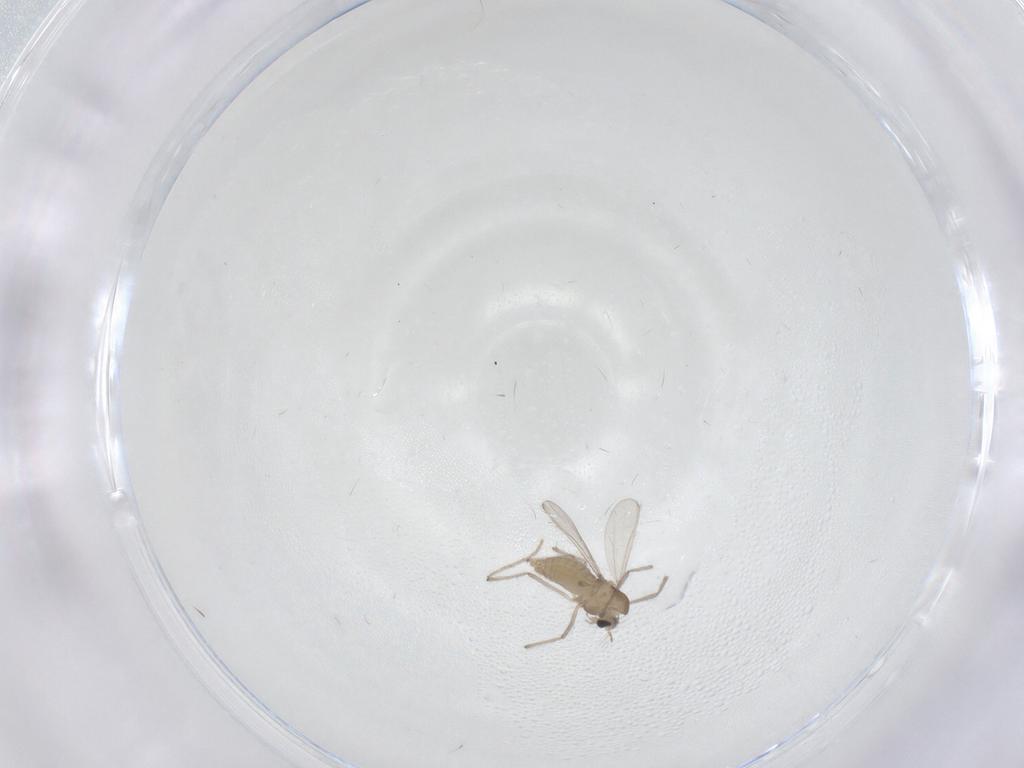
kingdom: Animalia
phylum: Arthropoda
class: Insecta
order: Diptera
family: Chironomidae
